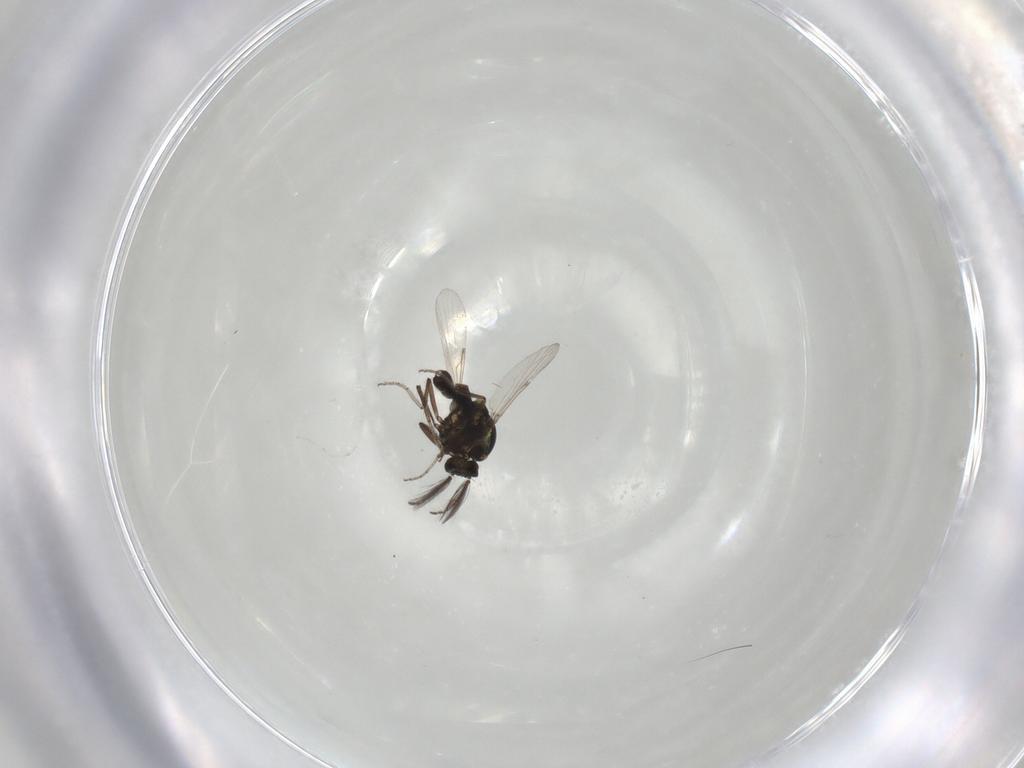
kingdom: Animalia
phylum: Arthropoda
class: Insecta
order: Diptera
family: Ceratopogonidae
